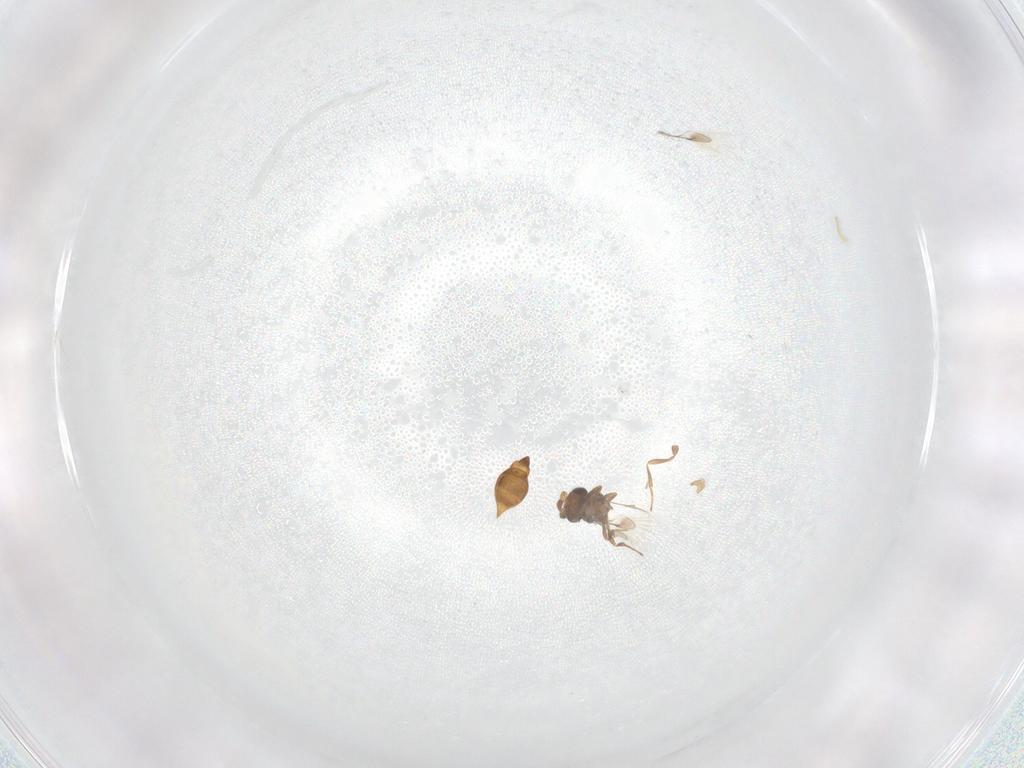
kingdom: Animalia
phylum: Arthropoda
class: Insecta
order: Hymenoptera
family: Scelionidae
